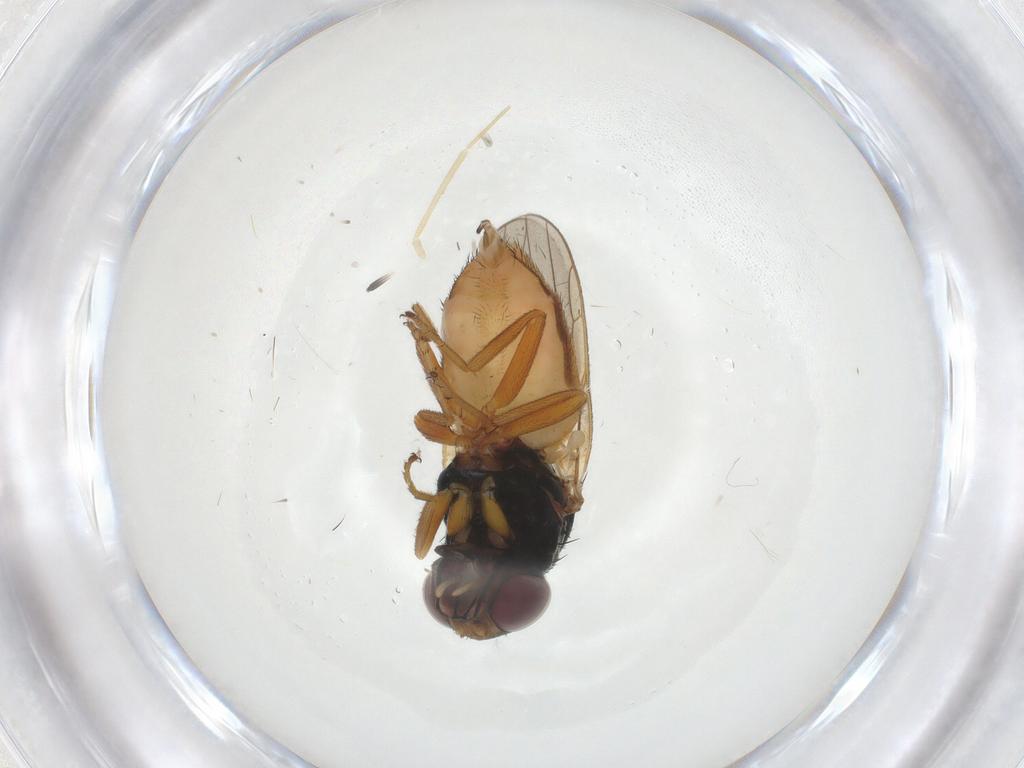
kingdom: Animalia
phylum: Arthropoda
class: Insecta
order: Diptera
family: Chloropidae
